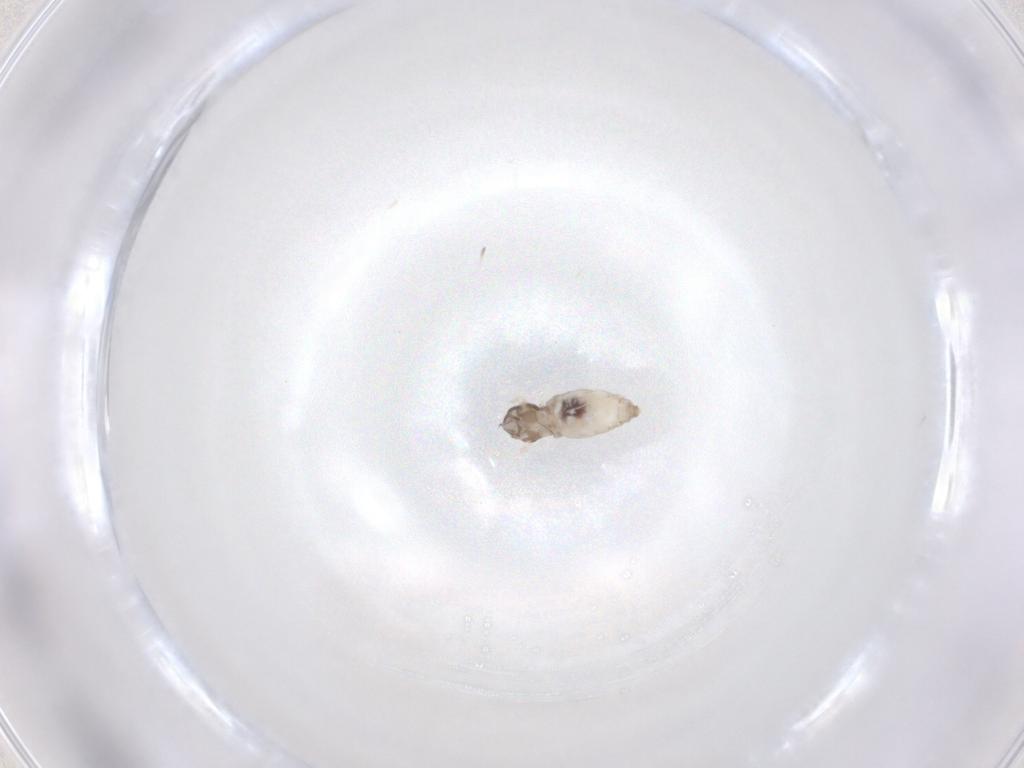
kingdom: Animalia
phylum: Arthropoda
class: Insecta
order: Diptera
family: Cecidomyiidae
